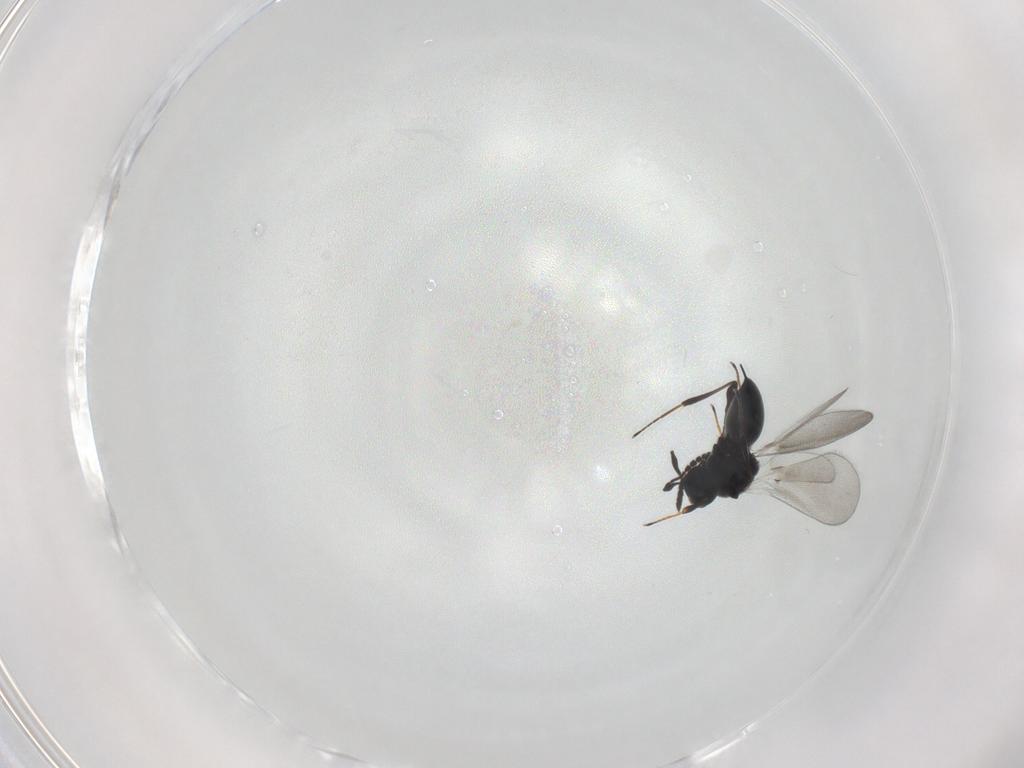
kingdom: Animalia
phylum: Arthropoda
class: Insecta
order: Hymenoptera
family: Platygastridae
